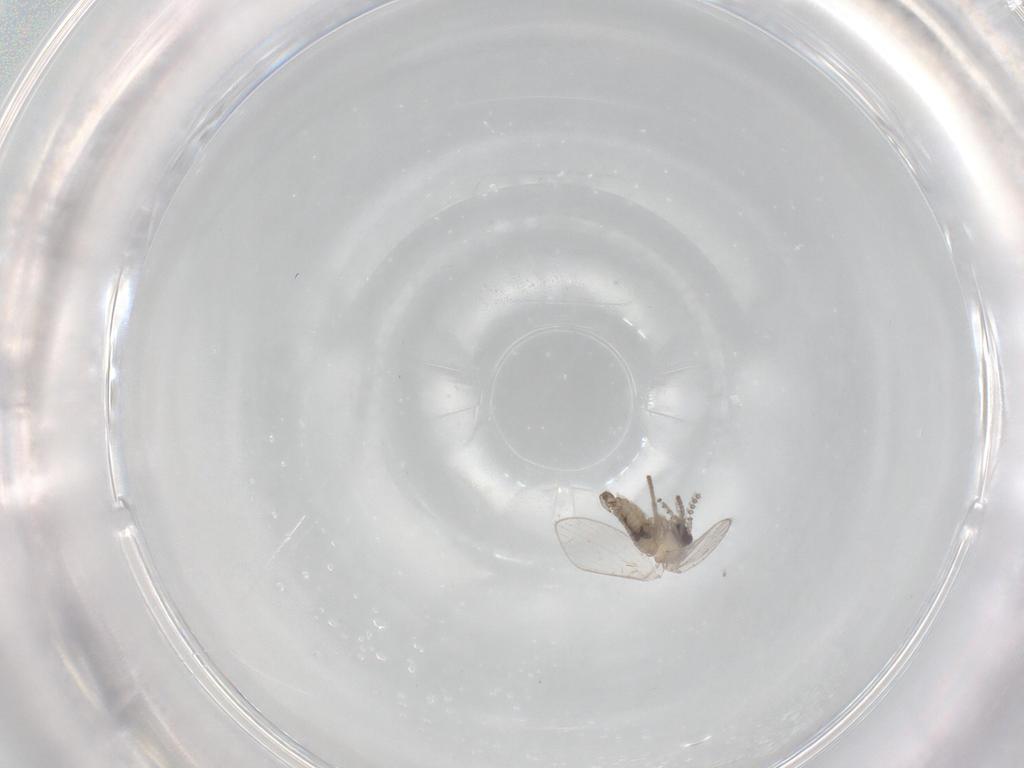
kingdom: Animalia
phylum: Arthropoda
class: Insecta
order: Diptera
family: Psychodidae
